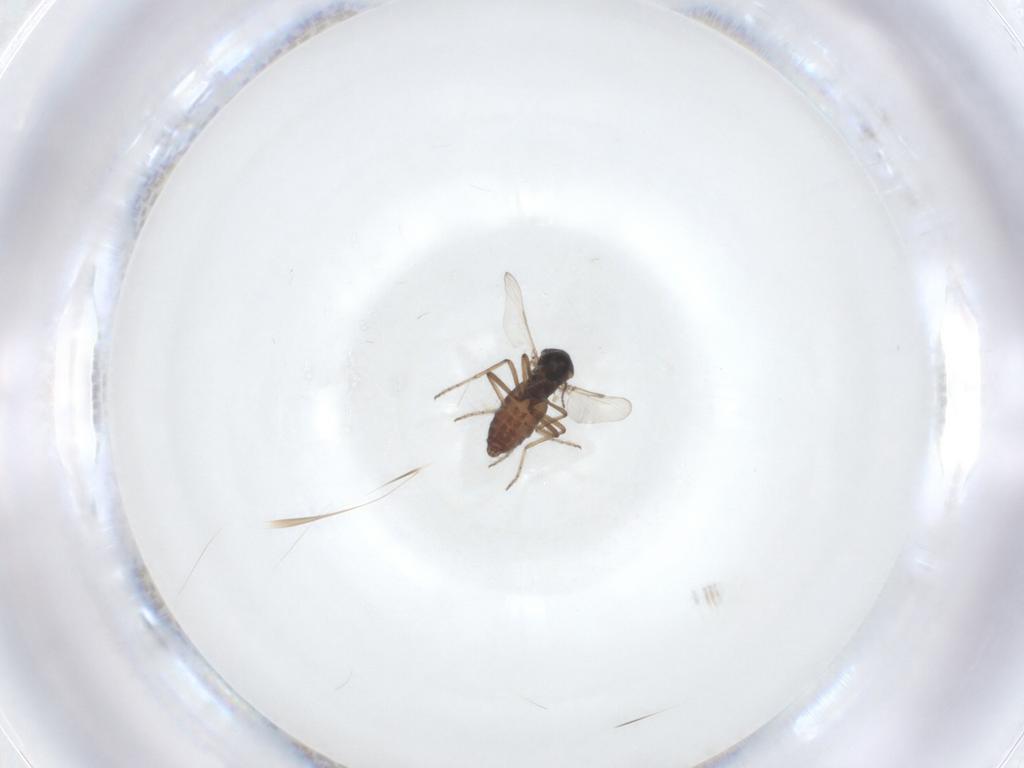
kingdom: Animalia
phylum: Arthropoda
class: Insecta
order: Diptera
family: Ceratopogonidae
